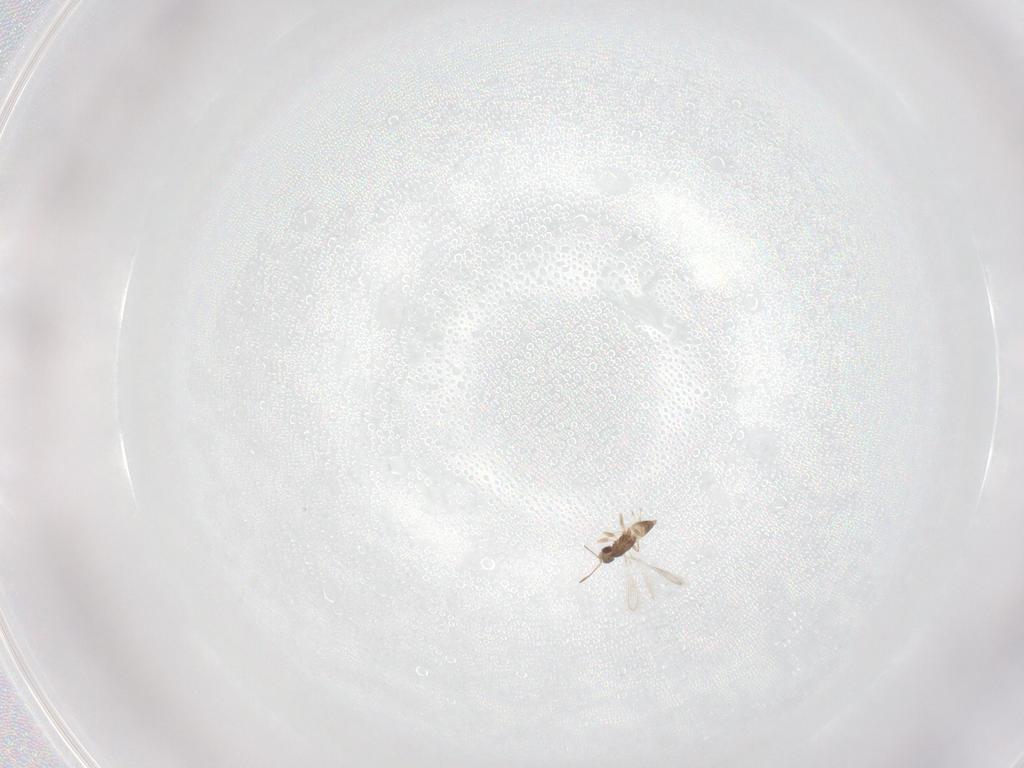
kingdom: Animalia
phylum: Arthropoda
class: Insecta
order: Hymenoptera
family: Mymaridae
